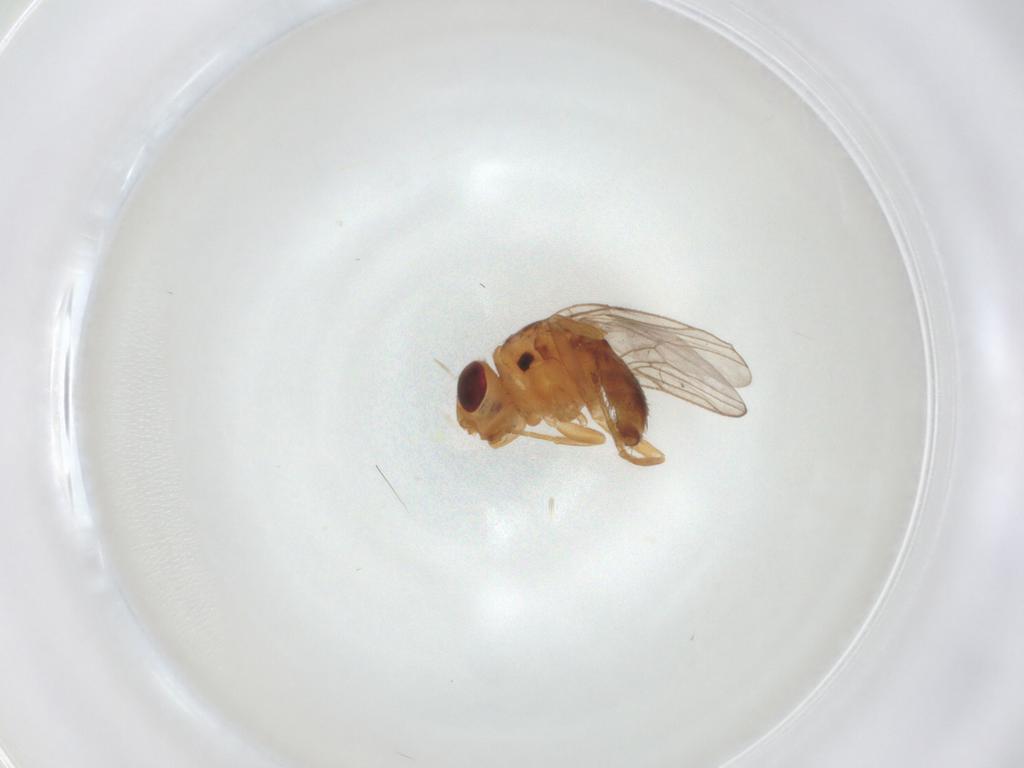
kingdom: Animalia
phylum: Arthropoda
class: Insecta
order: Diptera
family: Chloropidae
